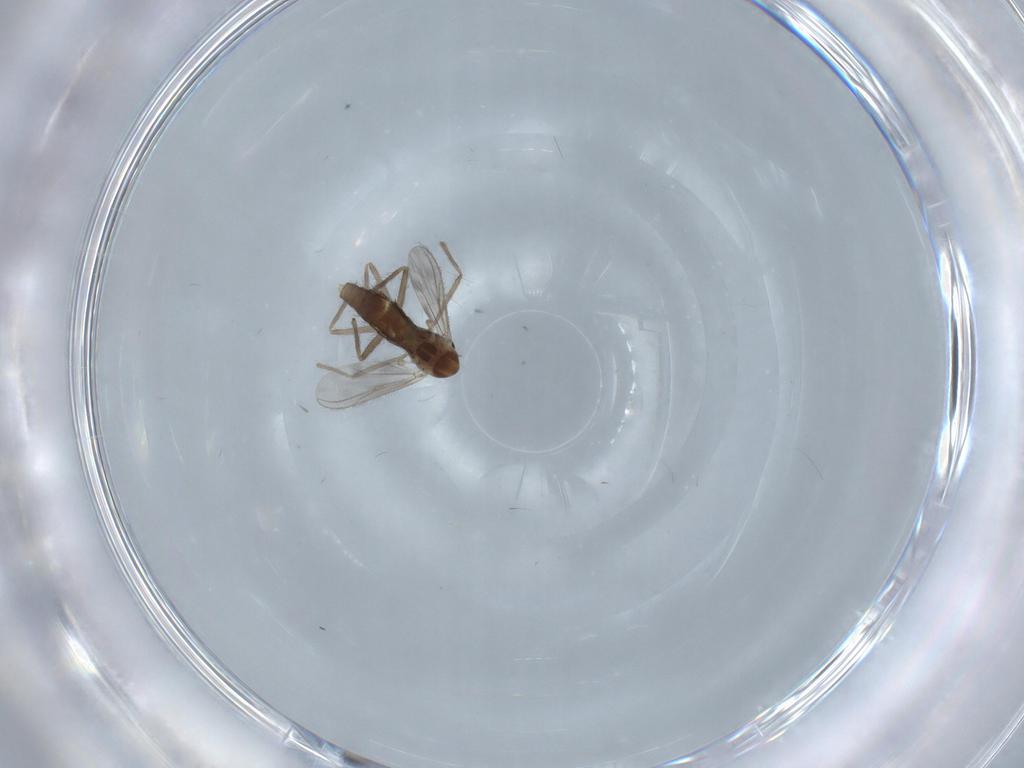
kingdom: Animalia
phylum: Arthropoda
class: Insecta
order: Diptera
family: Chironomidae
